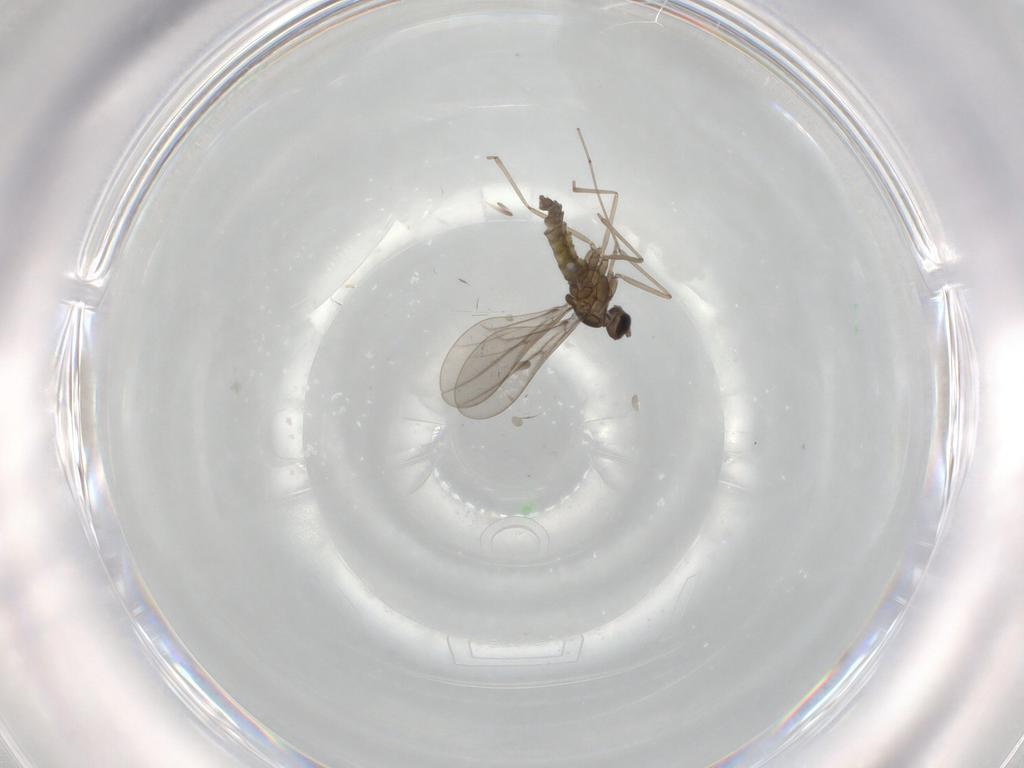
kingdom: Animalia
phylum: Arthropoda
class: Insecta
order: Diptera
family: Cecidomyiidae
